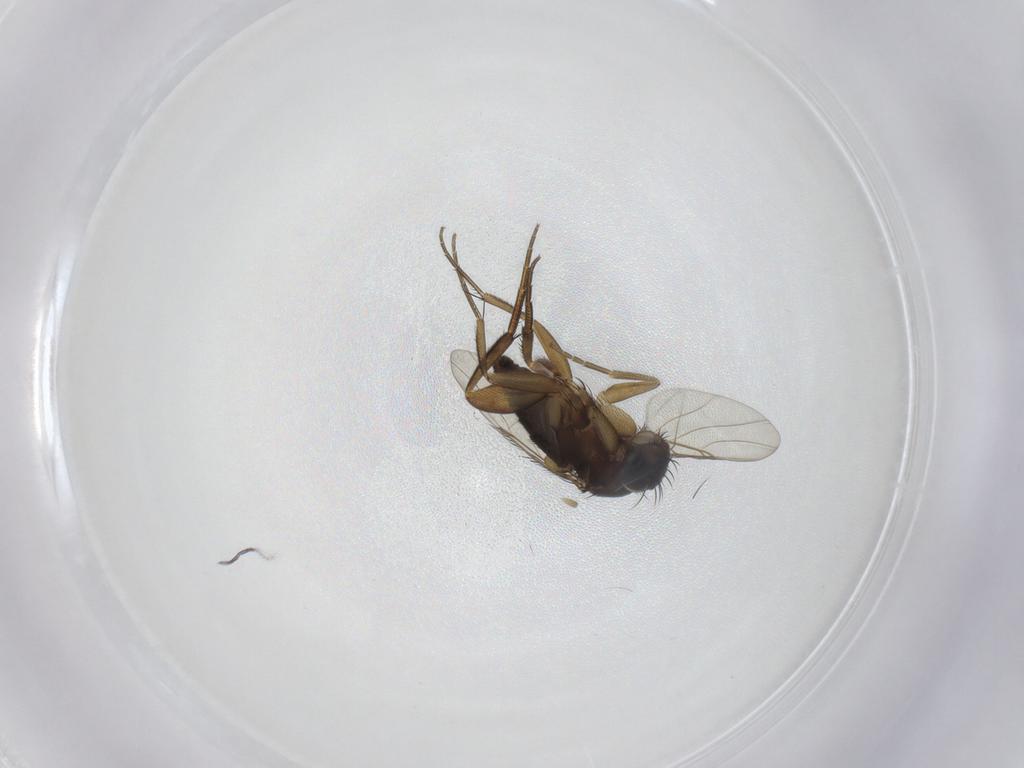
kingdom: Animalia
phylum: Arthropoda
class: Insecta
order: Diptera
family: Phoridae
